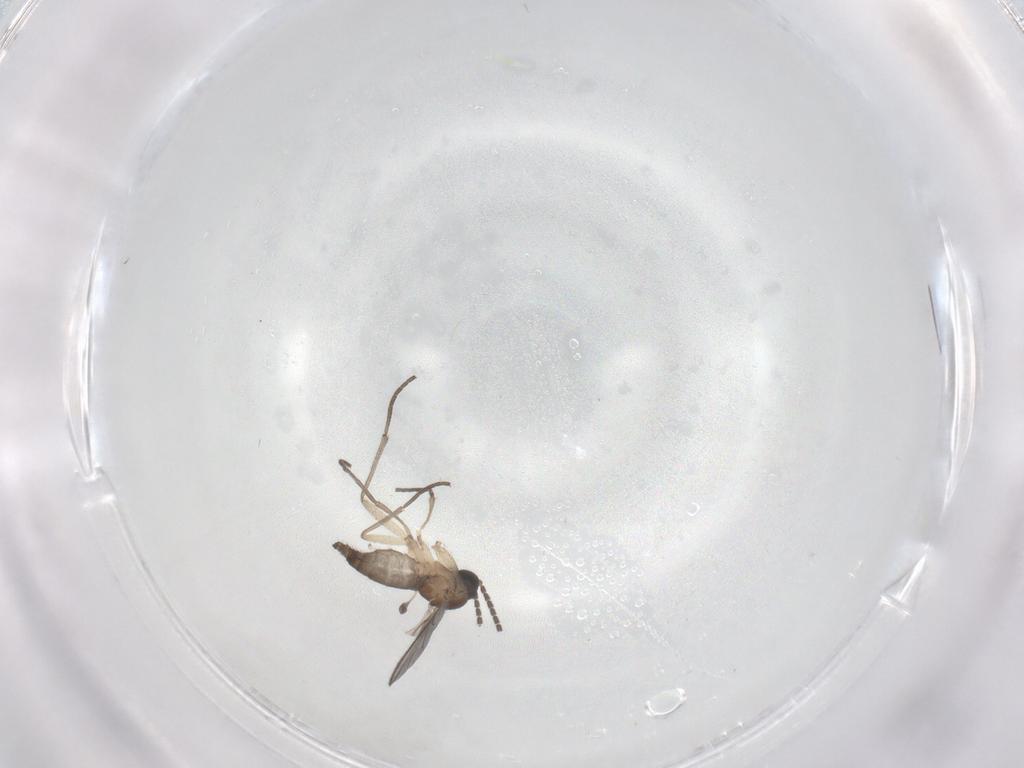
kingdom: Animalia
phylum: Arthropoda
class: Insecta
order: Diptera
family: Sciaridae
